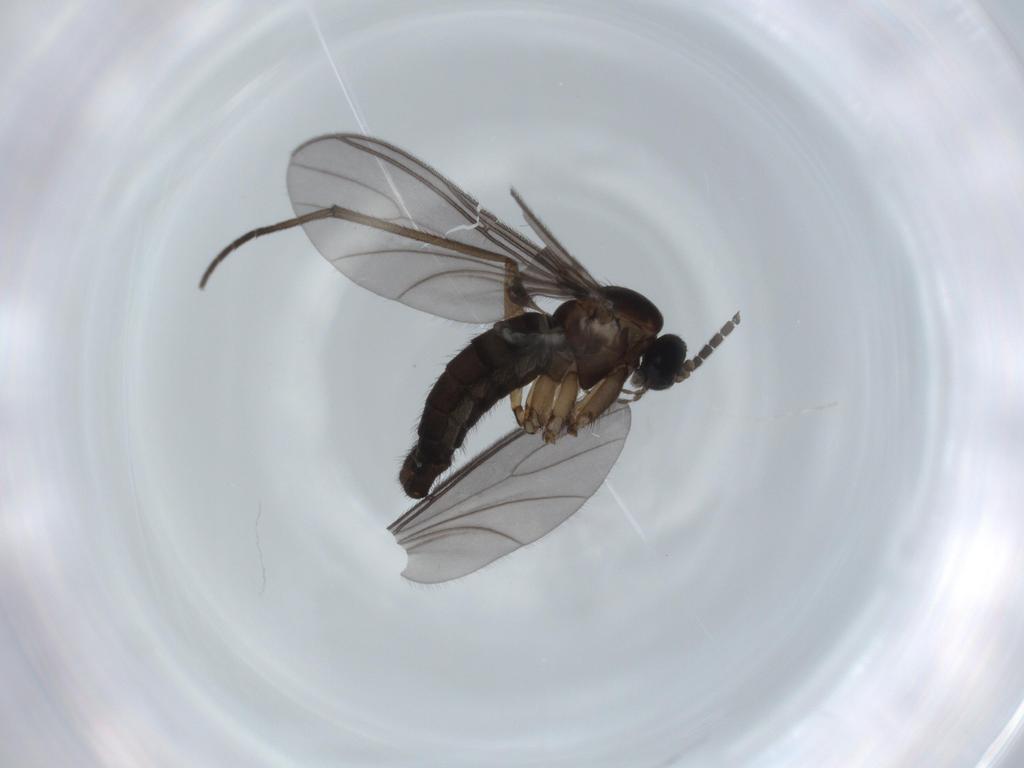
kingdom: Animalia
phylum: Arthropoda
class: Insecta
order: Diptera
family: Sciaridae
